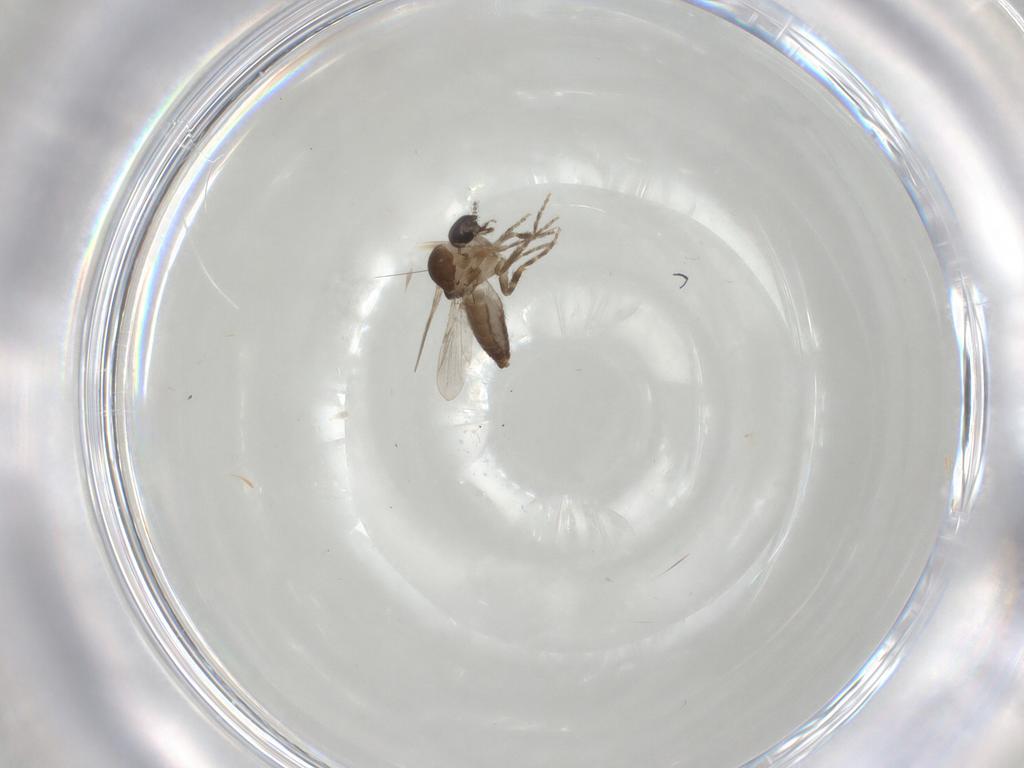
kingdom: Animalia
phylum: Arthropoda
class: Insecta
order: Diptera
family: Ceratopogonidae
